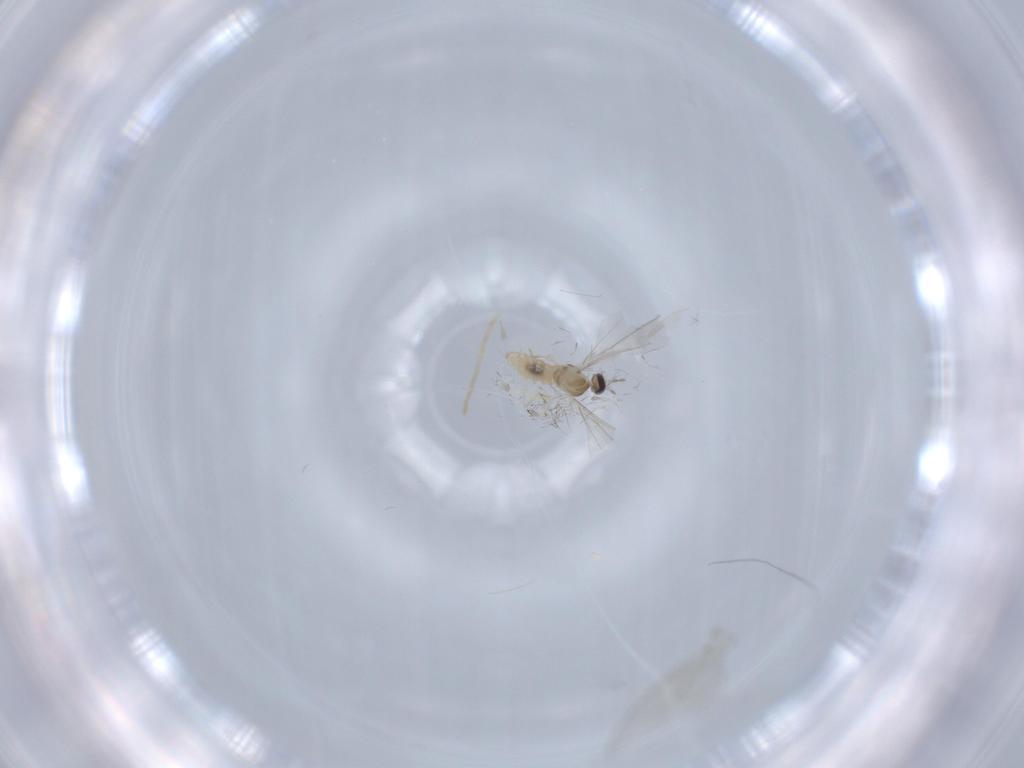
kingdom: Animalia
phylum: Arthropoda
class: Insecta
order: Diptera
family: Cecidomyiidae
